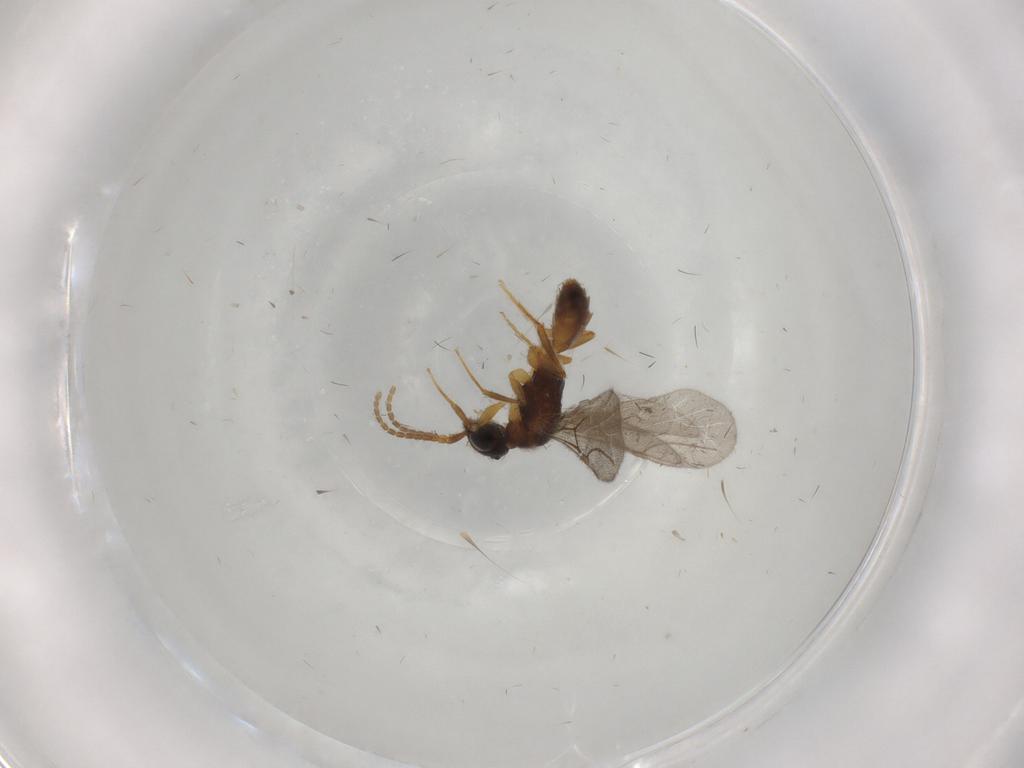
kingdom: Animalia
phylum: Arthropoda
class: Insecta
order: Hymenoptera
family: Bethylidae
